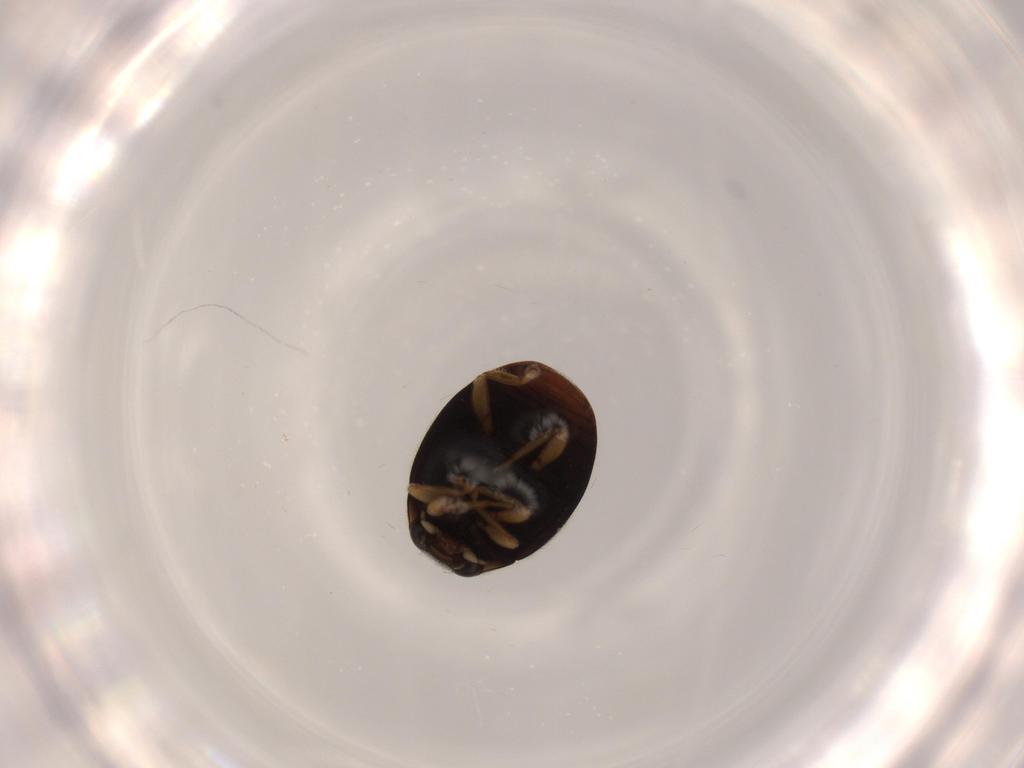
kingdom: Animalia
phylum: Arthropoda
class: Insecta
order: Coleoptera
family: Coccinellidae
